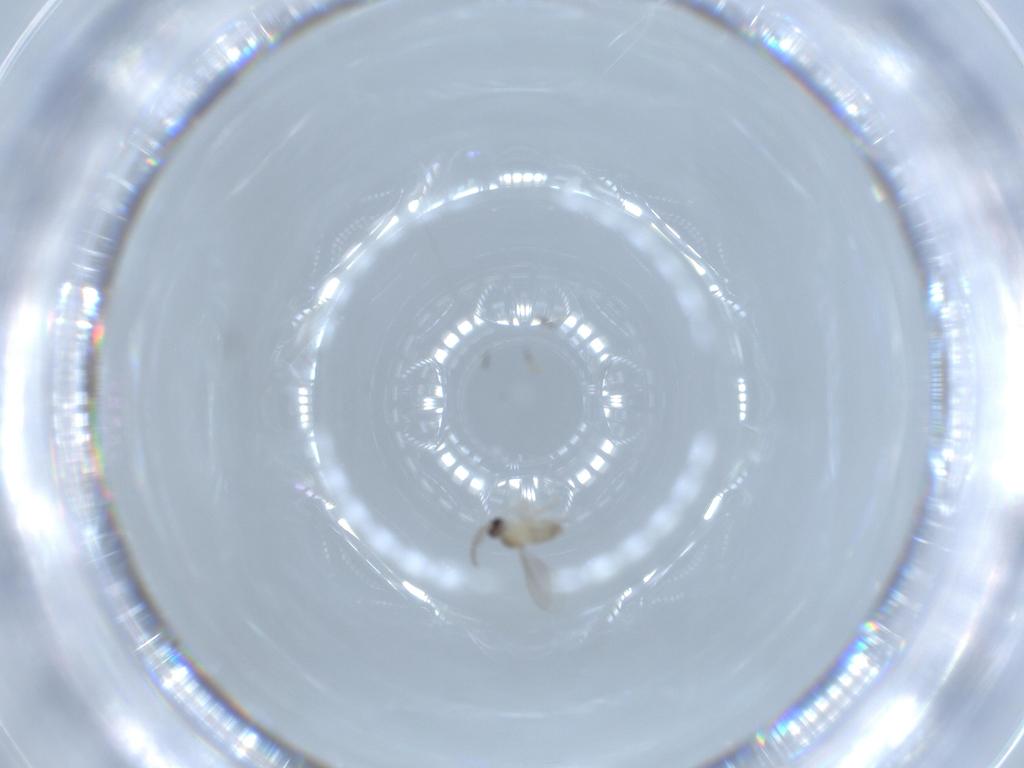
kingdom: Animalia
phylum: Arthropoda
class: Insecta
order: Diptera
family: Cecidomyiidae
